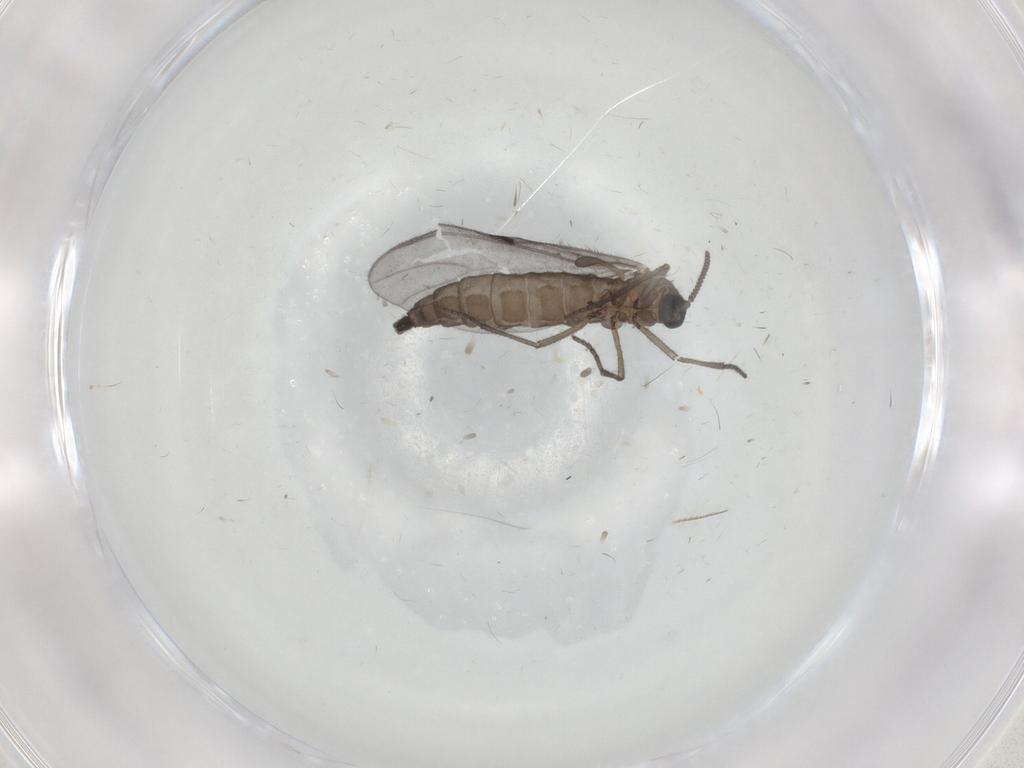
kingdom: Animalia
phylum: Arthropoda
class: Insecta
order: Diptera
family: Sciaridae
